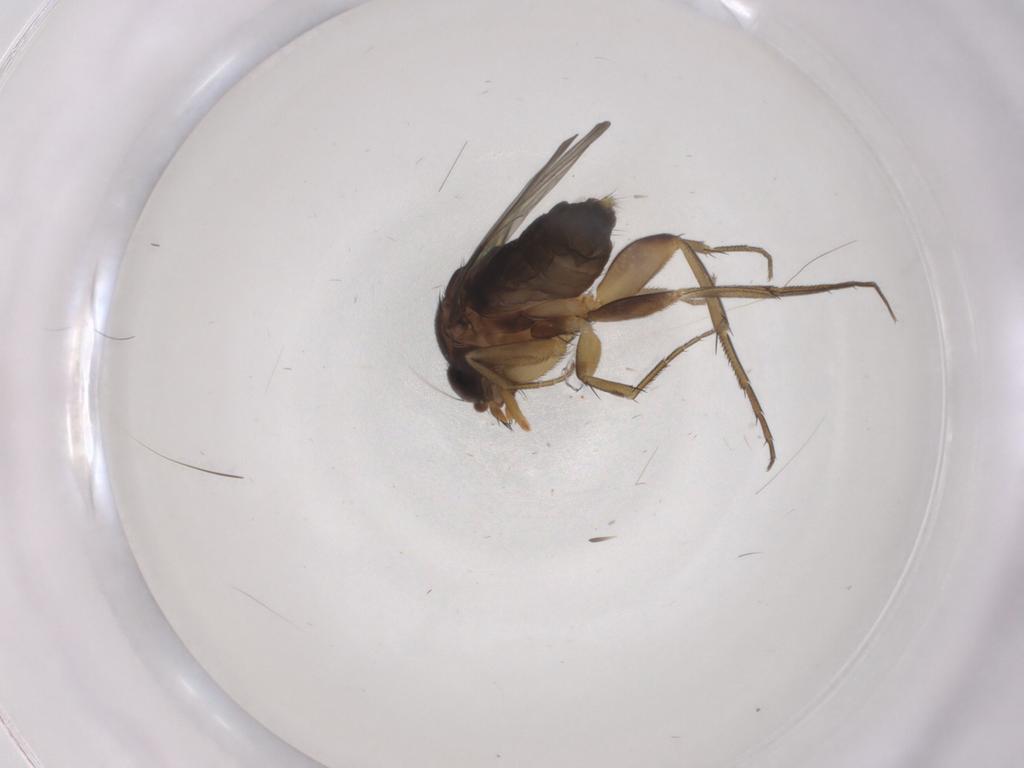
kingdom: Animalia
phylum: Arthropoda
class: Insecta
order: Diptera
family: Phoridae
